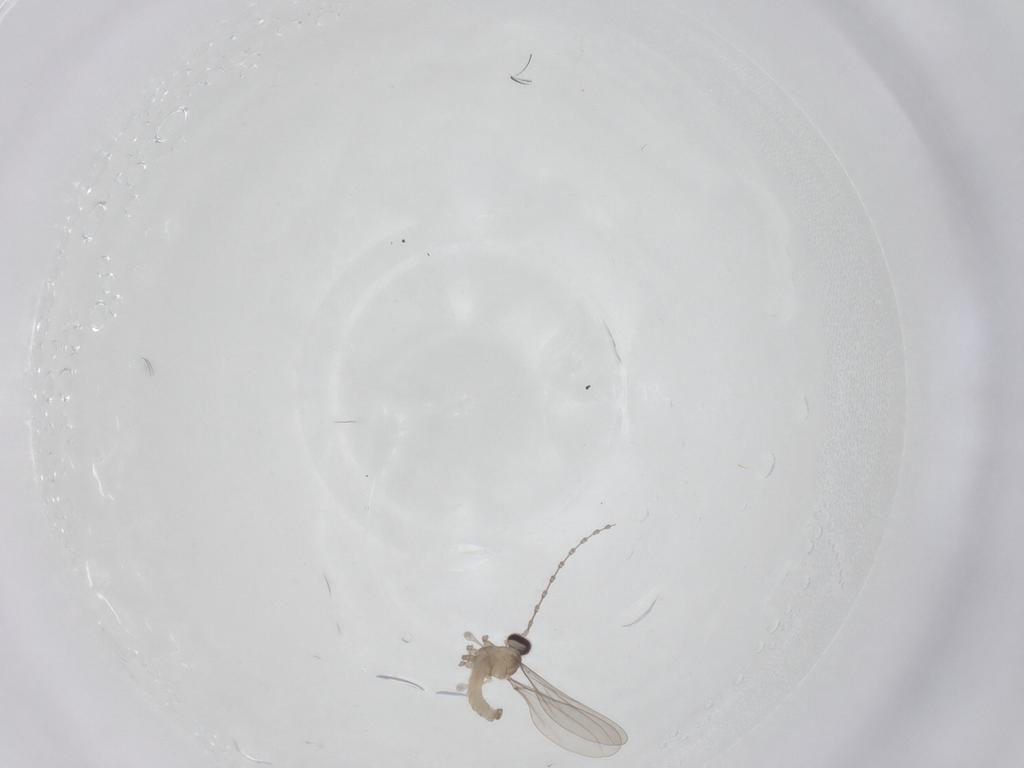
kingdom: Animalia
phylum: Arthropoda
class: Insecta
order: Diptera
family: Cecidomyiidae
